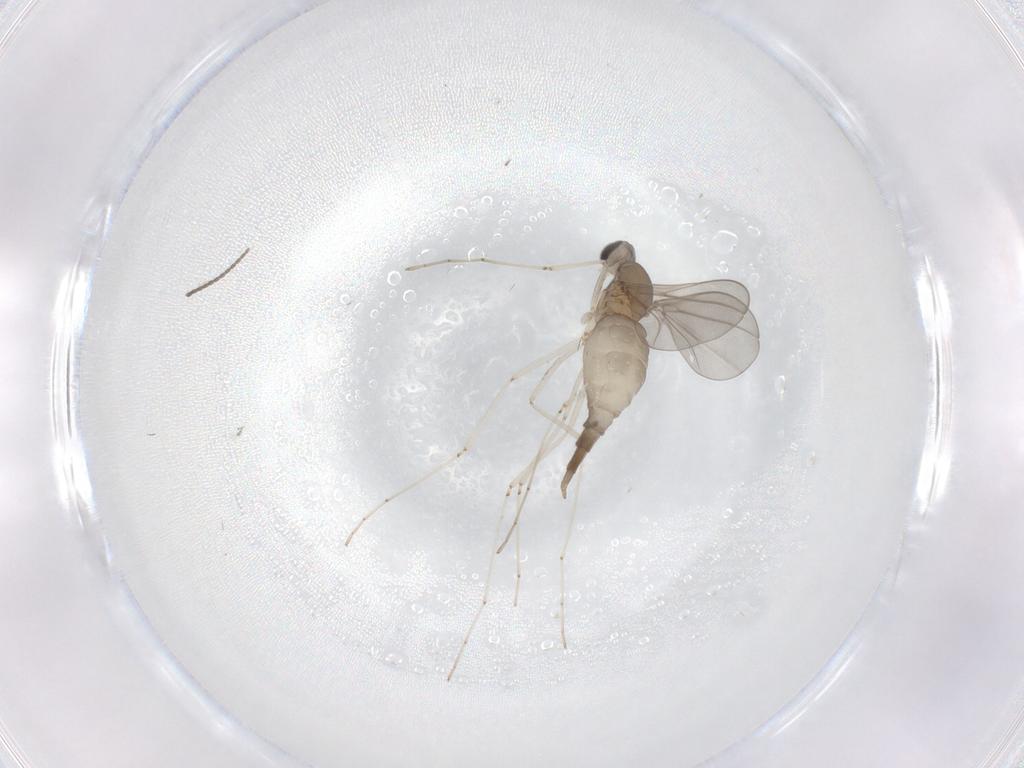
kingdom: Animalia
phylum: Arthropoda
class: Insecta
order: Diptera
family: Cecidomyiidae
